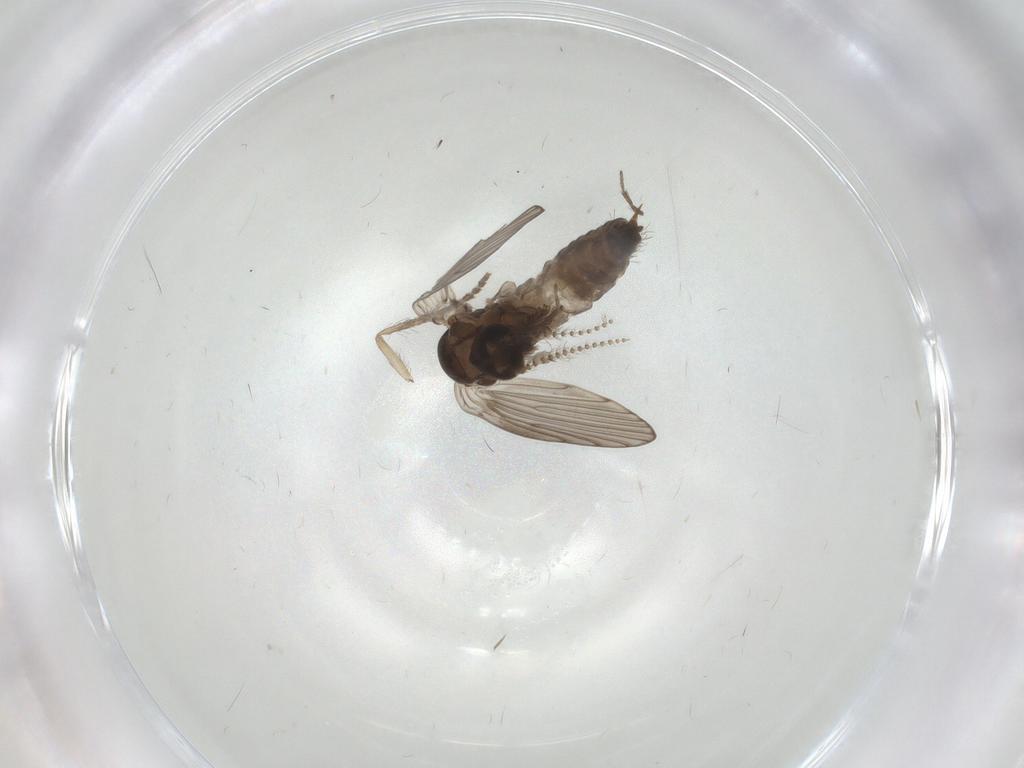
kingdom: Animalia
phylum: Arthropoda
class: Insecta
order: Diptera
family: Psychodidae
